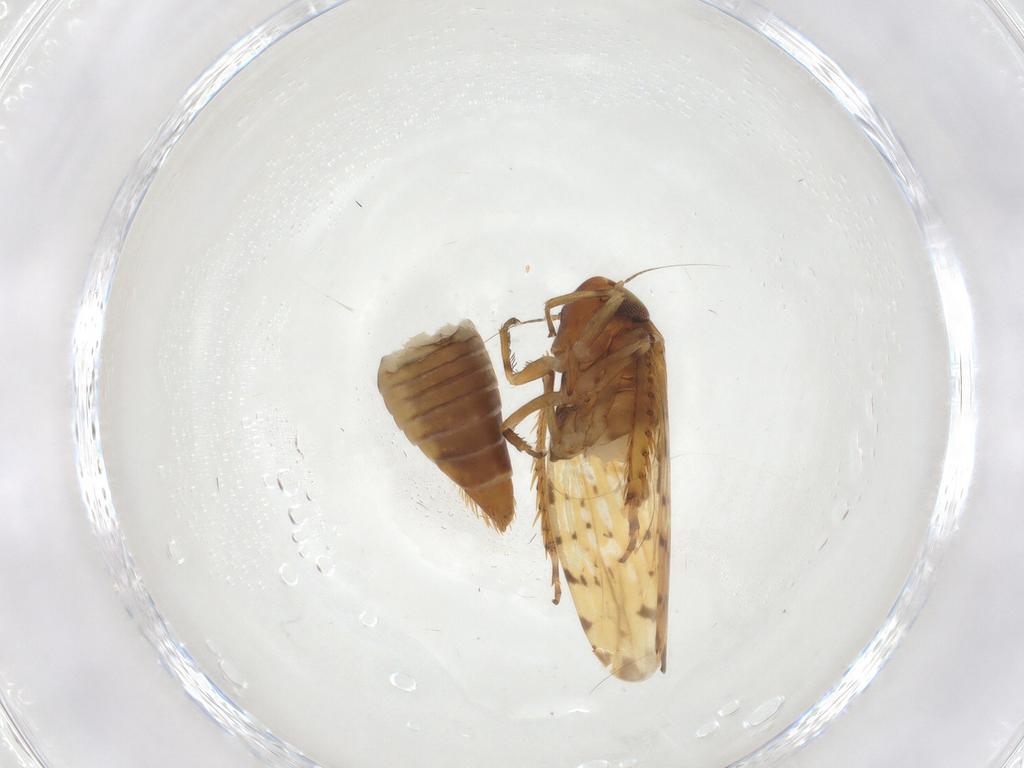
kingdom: Animalia
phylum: Arthropoda
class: Insecta
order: Hemiptera
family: Cicadellidae
